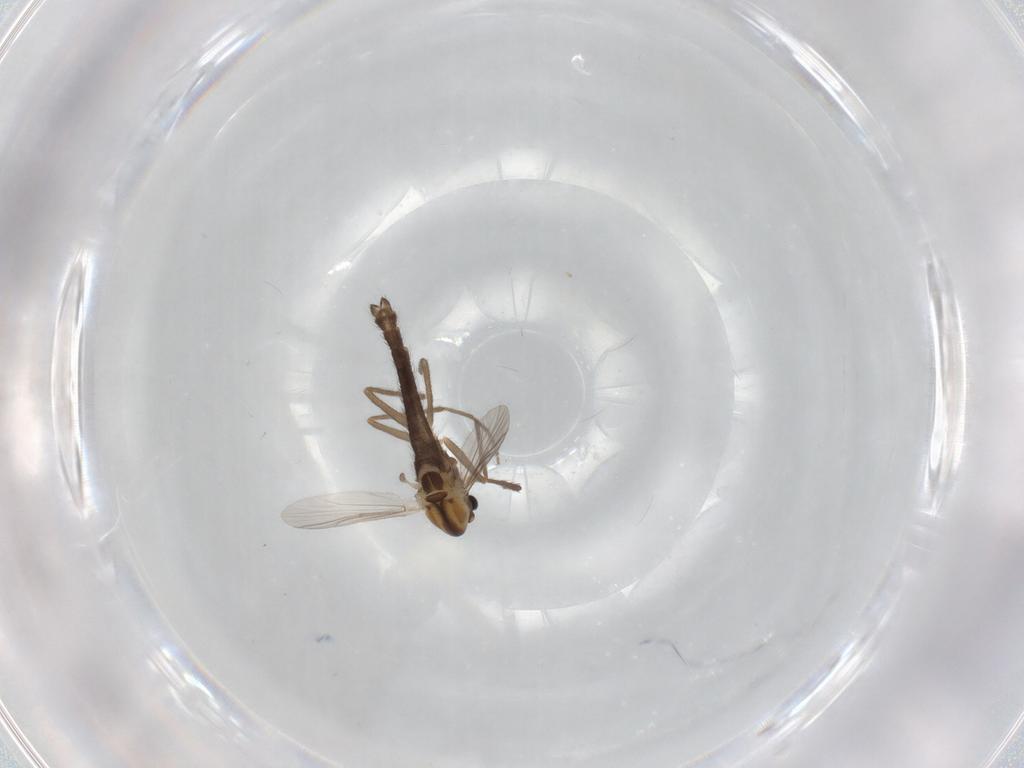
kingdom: Animalia
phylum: Arthropoda
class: Insecta
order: Diptera
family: Chironomidae
